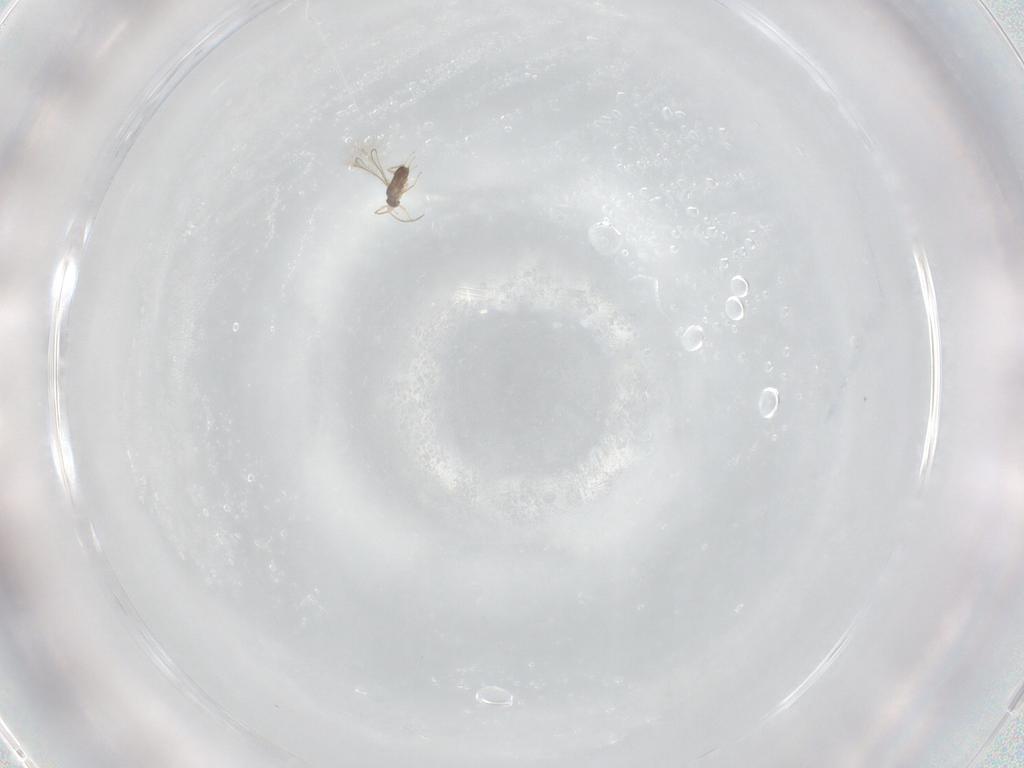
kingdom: Animalia
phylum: Arthropoda
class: Insecta
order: Hymenoptera
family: Mymaridae
